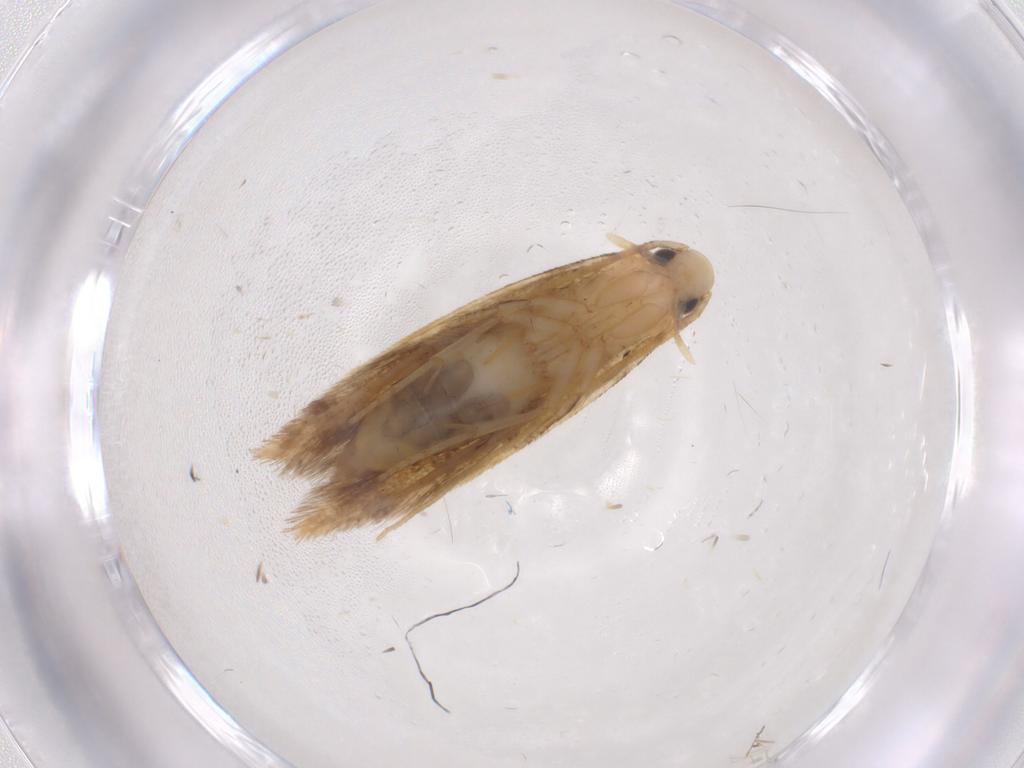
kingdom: Animalia
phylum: Arthropoda
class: Insecta
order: Lepidoptera
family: Tineidae
